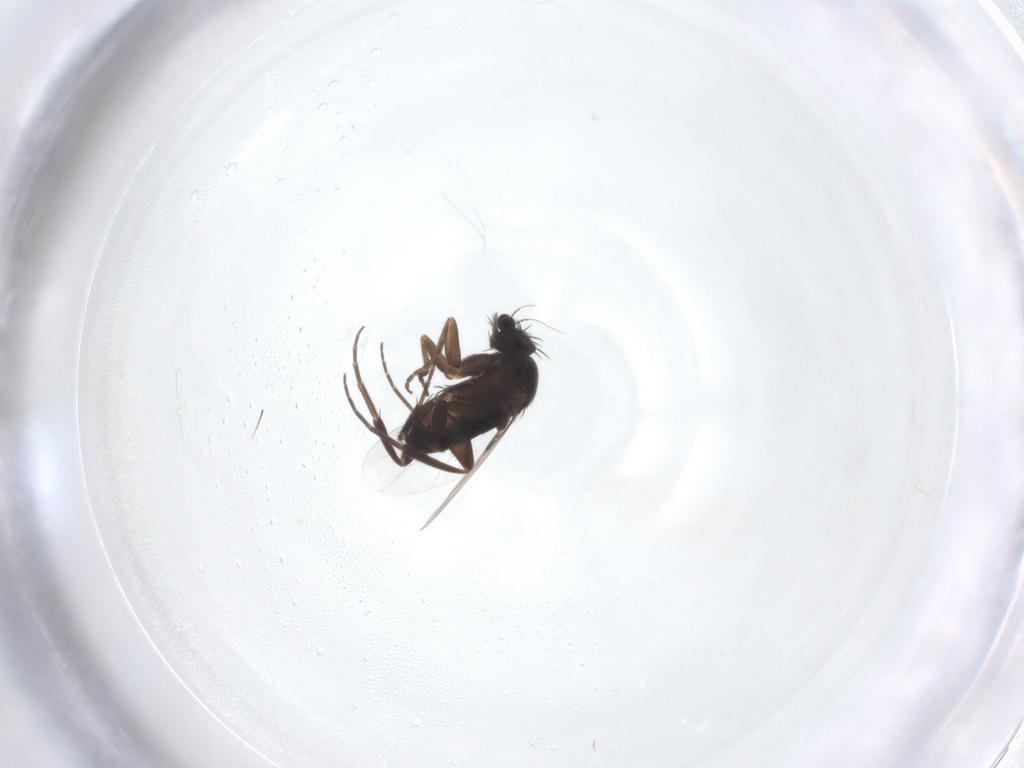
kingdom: Animalia
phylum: Arthropoda
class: Insecta
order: Diptera
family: Phoridae
